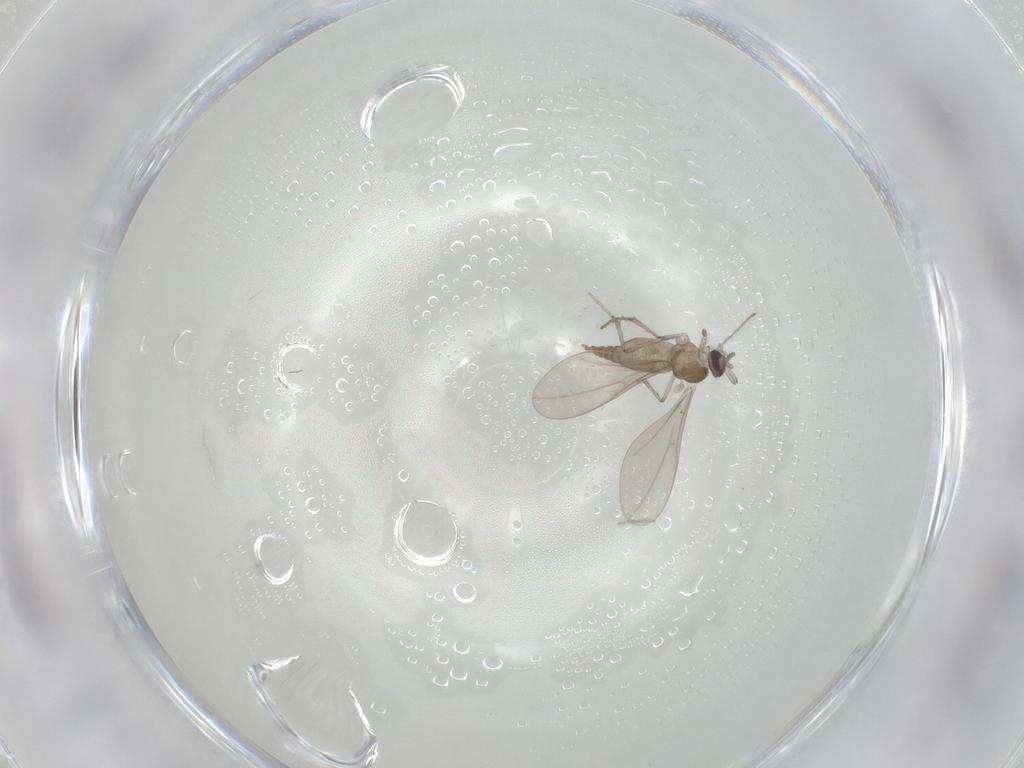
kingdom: Animalia
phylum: Arthropoda
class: Insecta
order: Diptera
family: Cecidomyiidae
